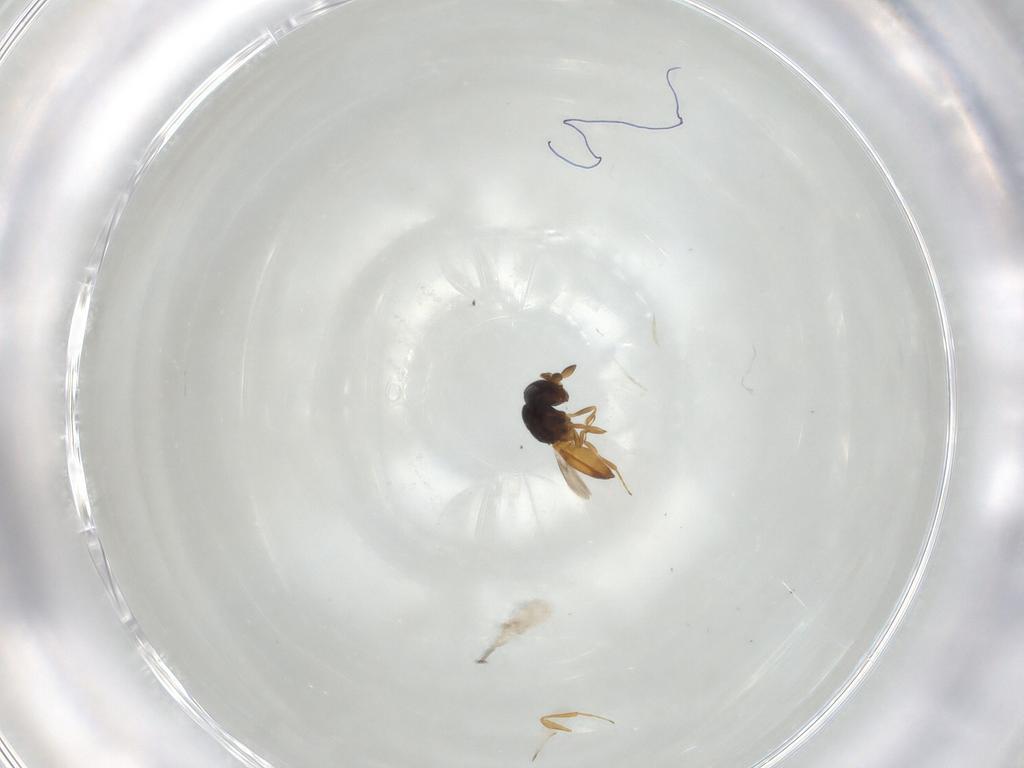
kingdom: Animalia
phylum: Arthropoda
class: Insecta
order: Hymenoptera
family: Scelionidae
